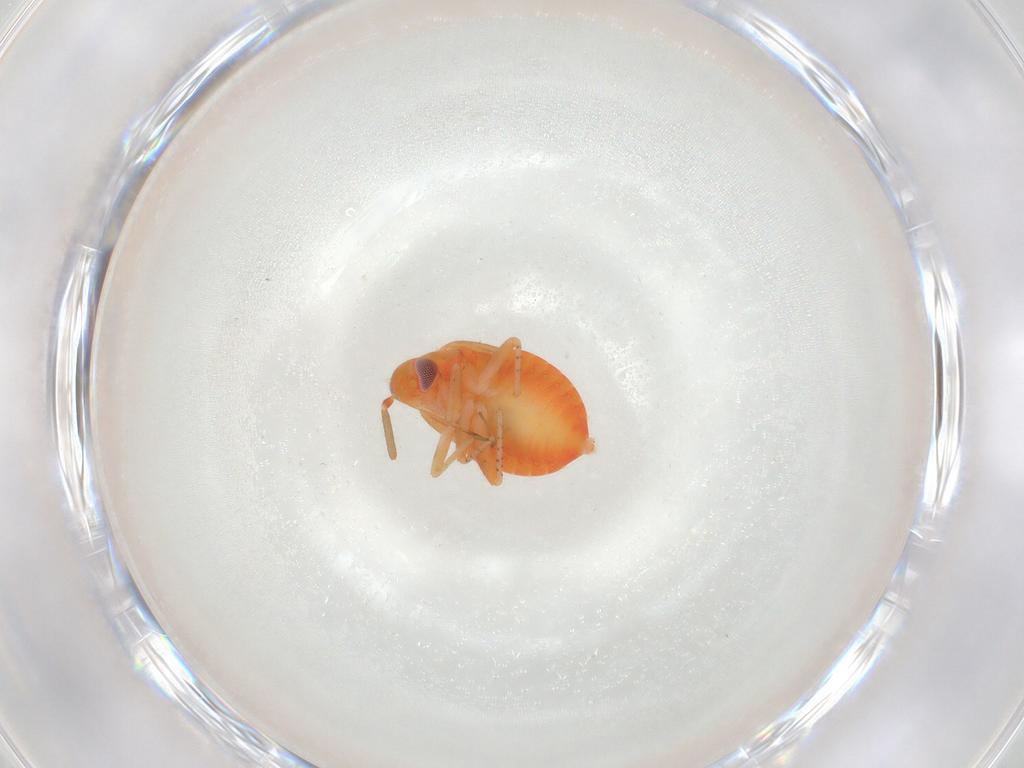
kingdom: Animalia
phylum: Arthropoda
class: Insecta
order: Hemiptera
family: Miridae
